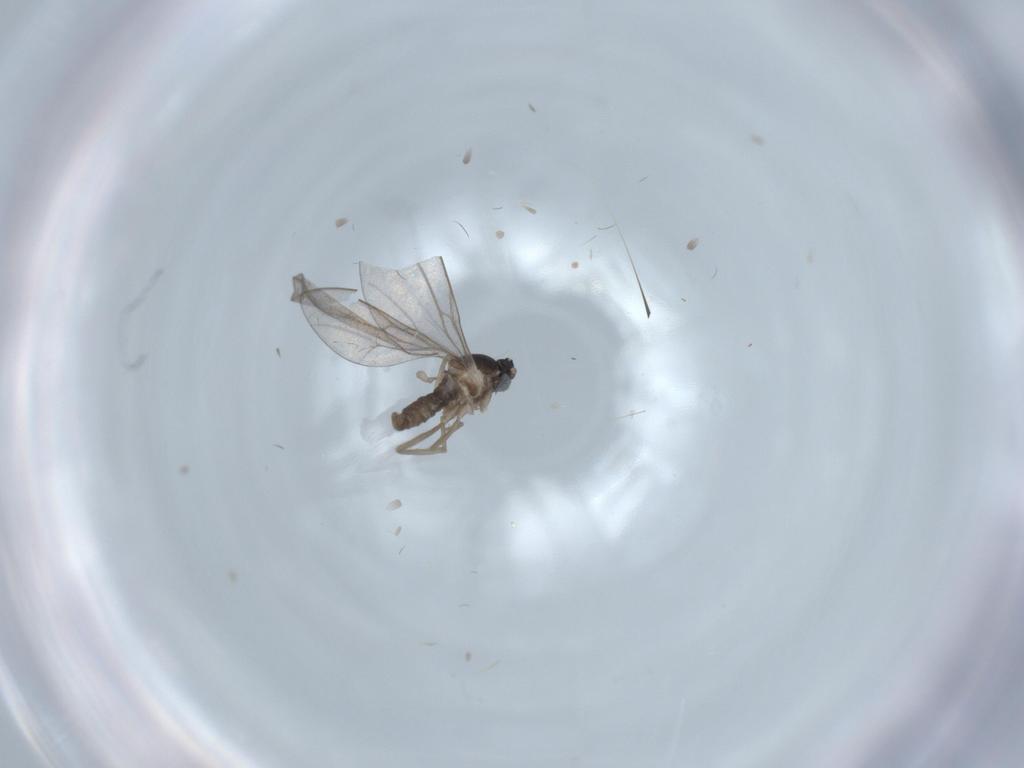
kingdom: Animalia
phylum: Arthropoda
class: Insecta
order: Diptera
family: Cecidomyiidae
